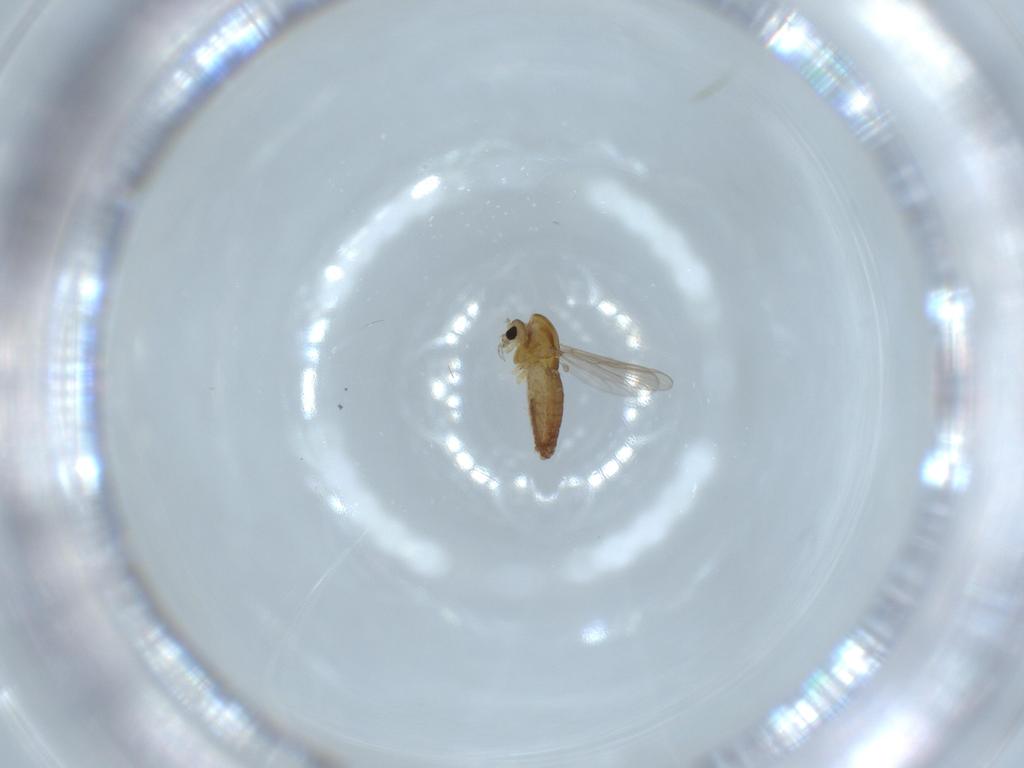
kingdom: Animalia
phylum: Arthropoda
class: Insecta
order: Diptera
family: Chironomidae
